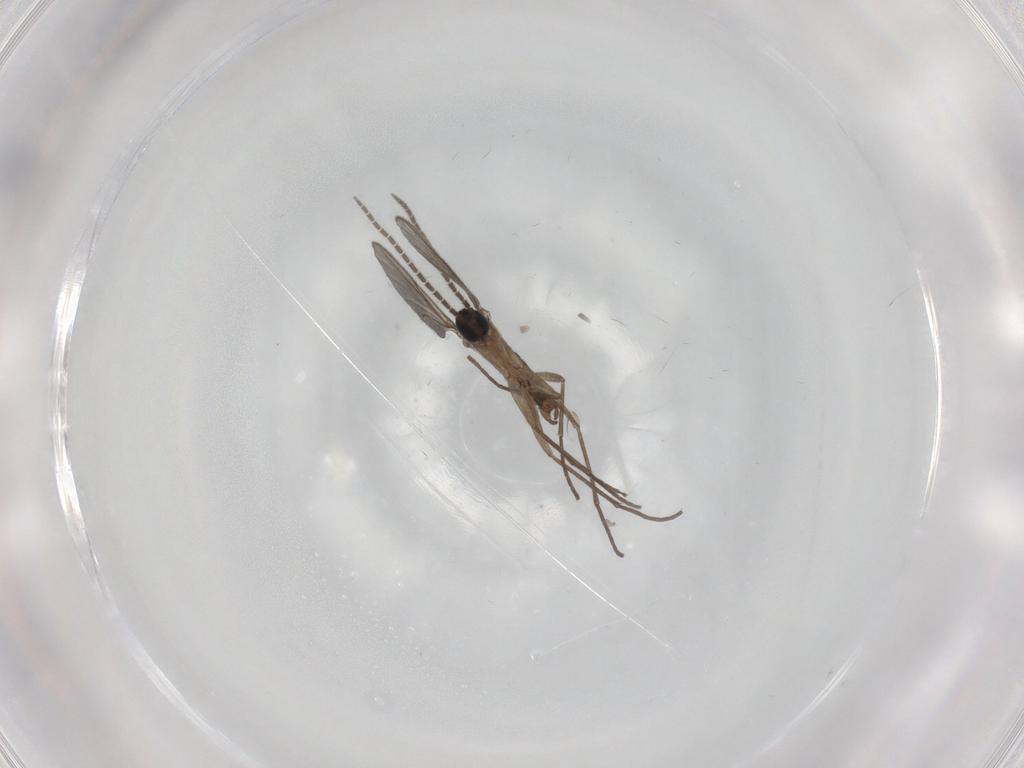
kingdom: Animalia
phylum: Arthropoda
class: Insecta
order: Diptera
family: Sciaridae
